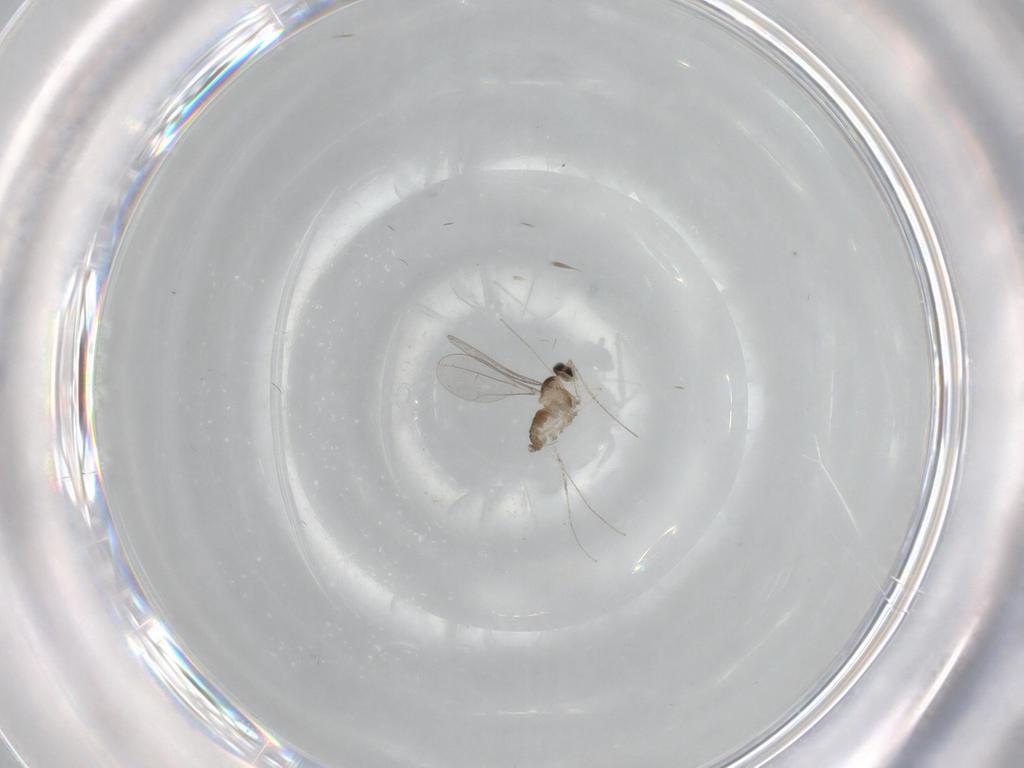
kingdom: Animalia
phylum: Arthropoda
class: Insecta
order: Diptera
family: Cecidomyiidae
